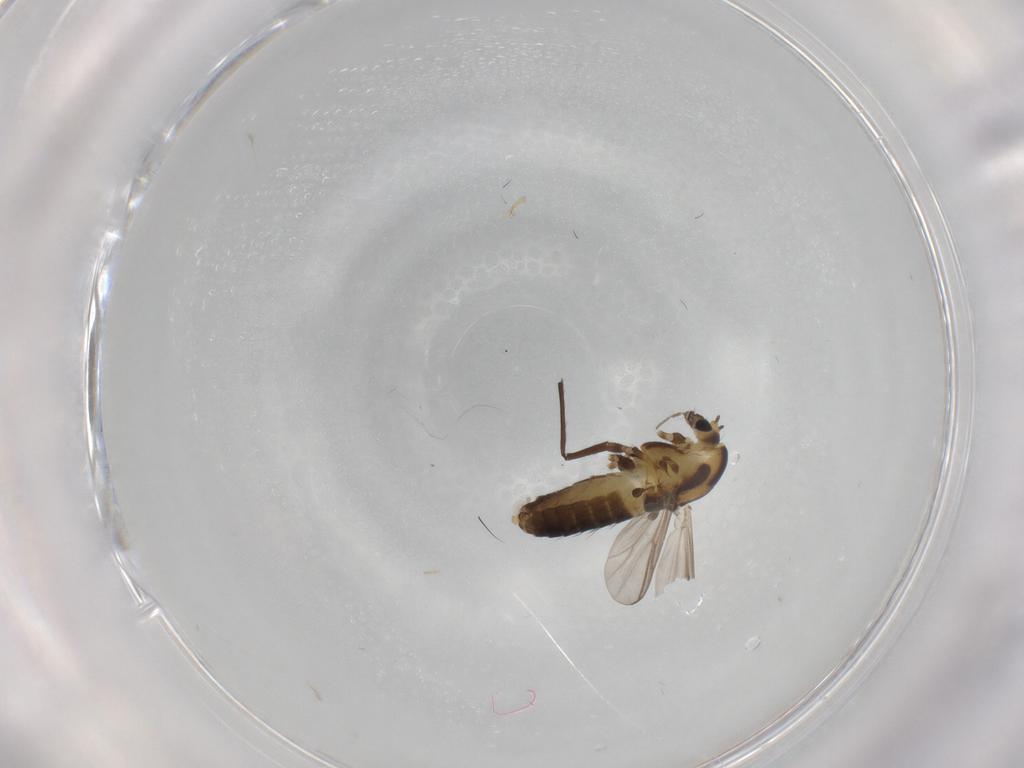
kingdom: Animalia
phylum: Arthropoda
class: Insecta
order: Diptera
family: Chironomidae
